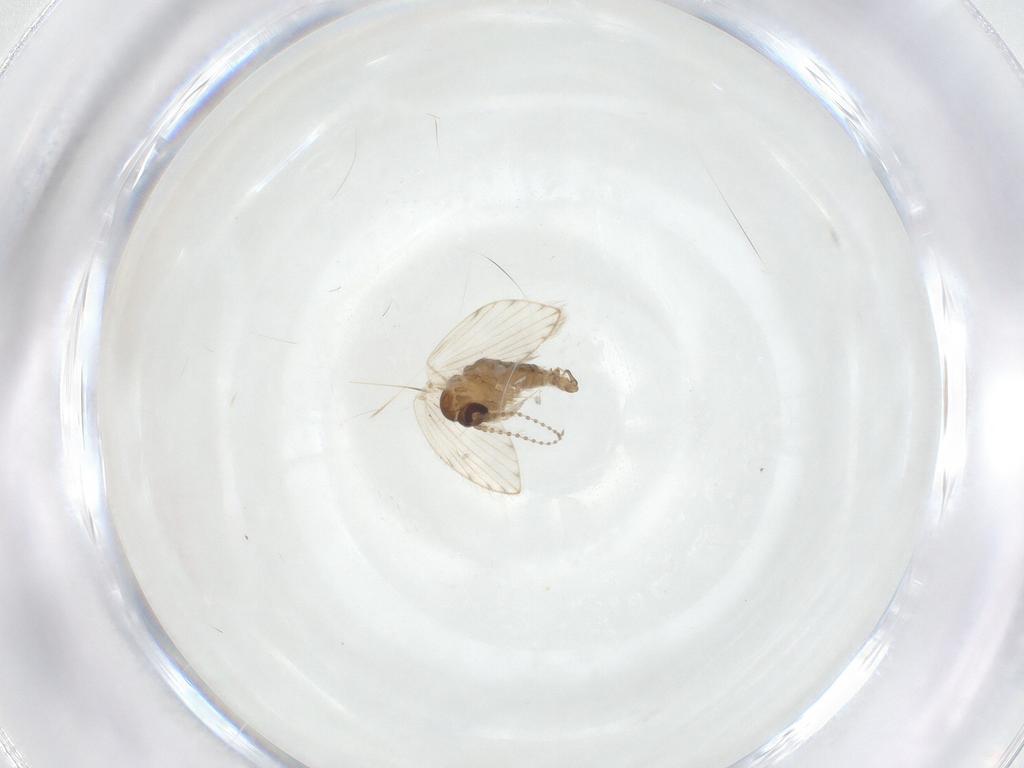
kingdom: Animalia
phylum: Arthropoda
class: Insecta
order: Diptera
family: Psychodidae
